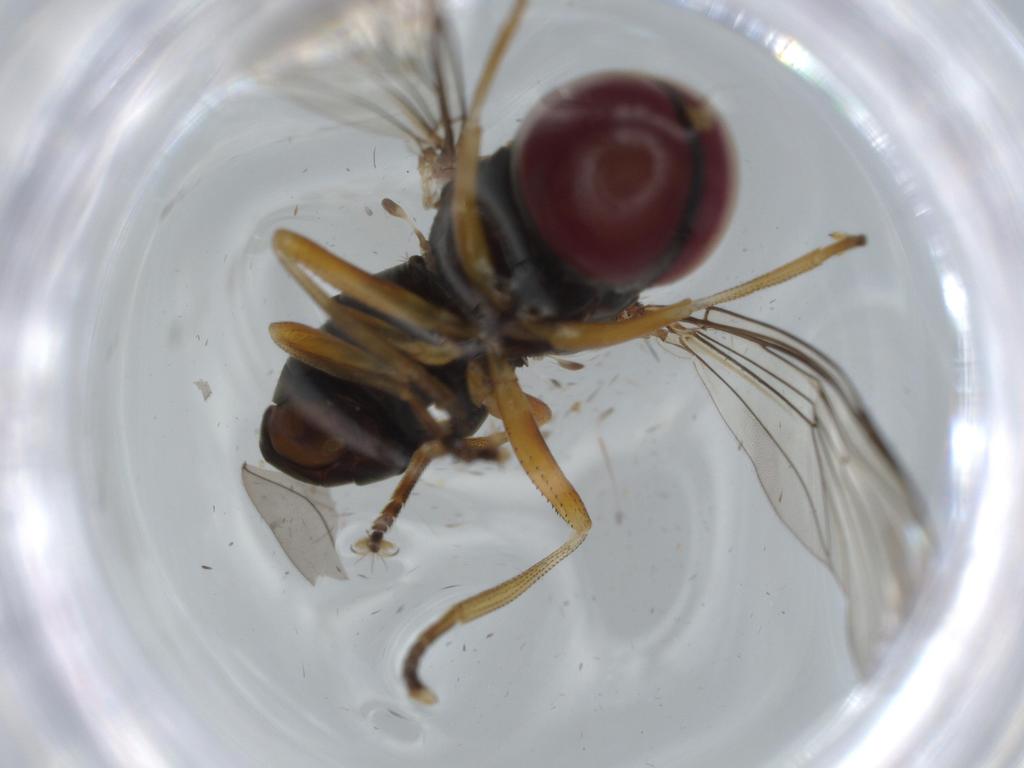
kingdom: Animalia
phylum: Arthropoda
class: Insecta
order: Diptera
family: Pipunculidae
